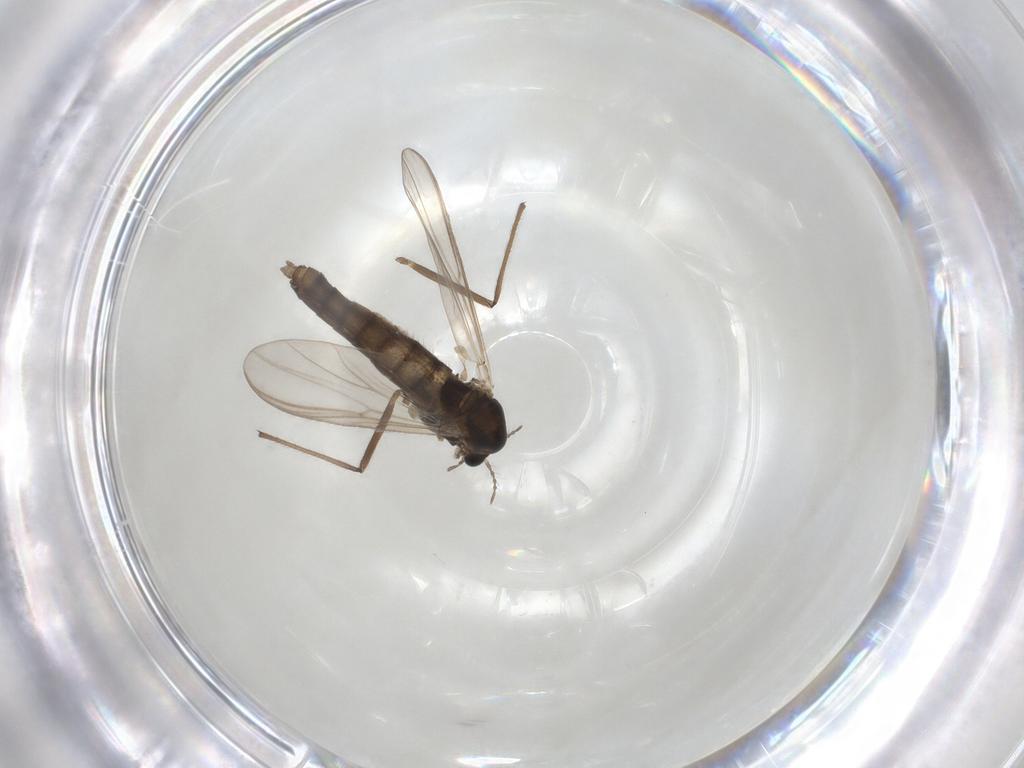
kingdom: Animalia
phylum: Arthropoda
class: Insecta
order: Diptera
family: Chironomidae
